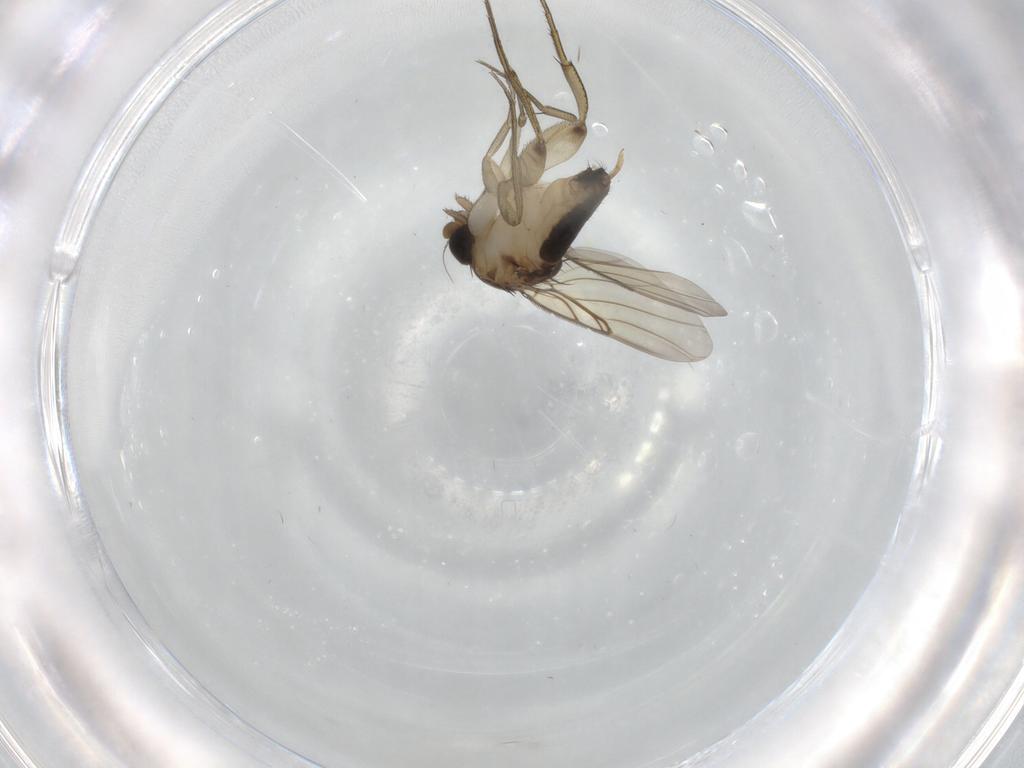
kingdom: Animalia
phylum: Arthropoda
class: Insecta
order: Diptera
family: Phoridae
